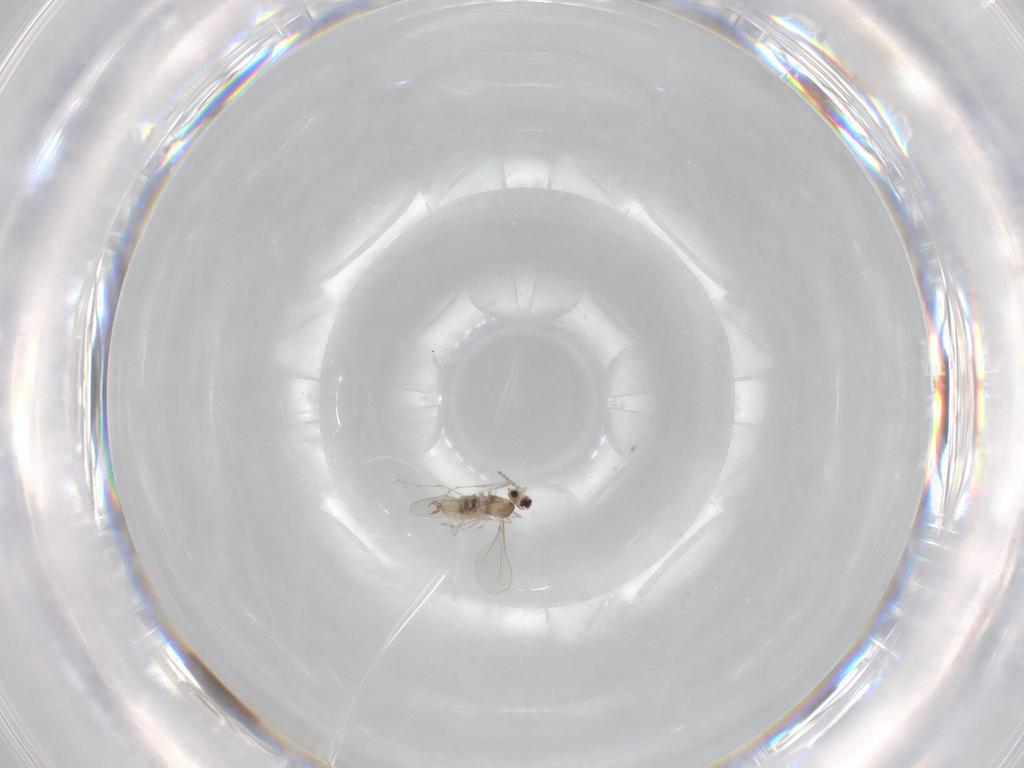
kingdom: Animalia
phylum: Arthropoda
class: Insecta
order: Diptera
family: Cecidomyiidae
